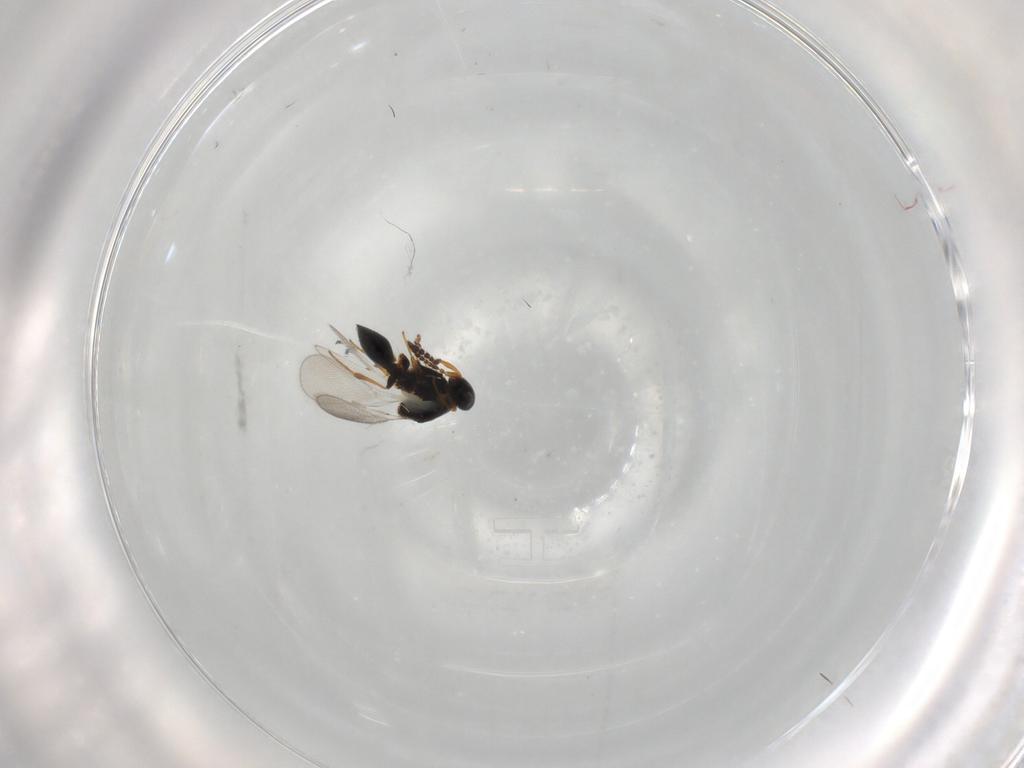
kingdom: Animalia
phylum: Arthropoda
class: Insecta
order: Hymenoptera
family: Platygastridae
